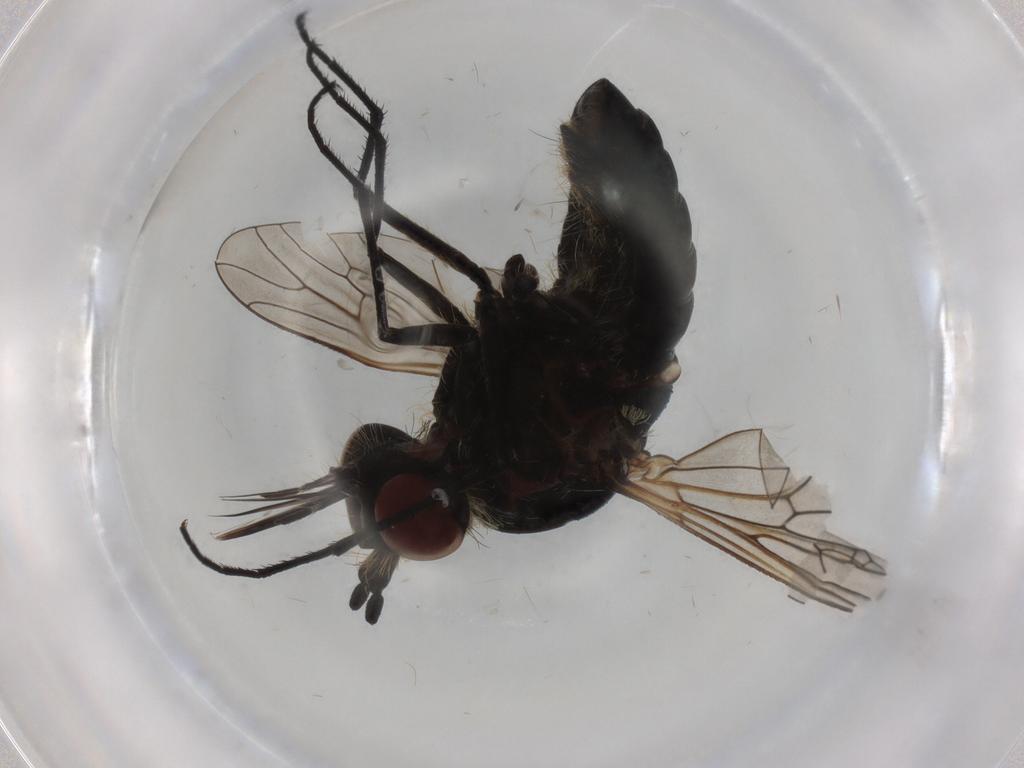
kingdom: Animalia
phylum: Arthropoda
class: Insecta
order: Diptera
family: Bombyliidae
